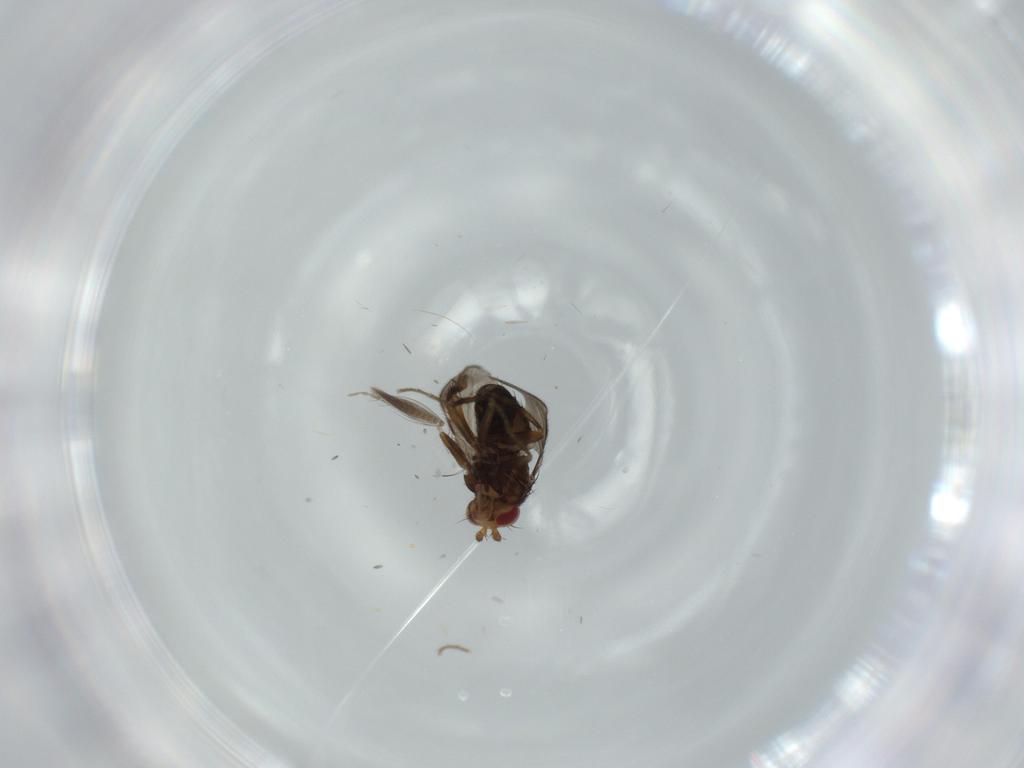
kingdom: Animalia
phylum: Arthropoda
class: Insecta
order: Diptera
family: Ceratopogonidae
